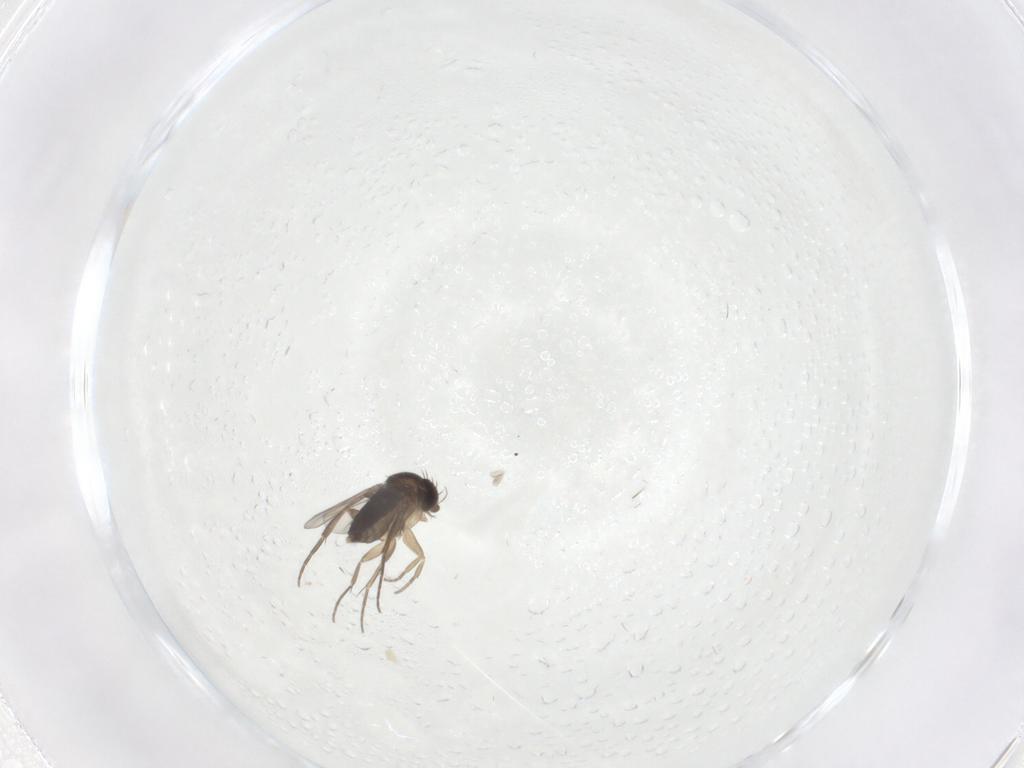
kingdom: Animalia
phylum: Arthropoda
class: Insecta
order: Diptera
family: Phoridae
